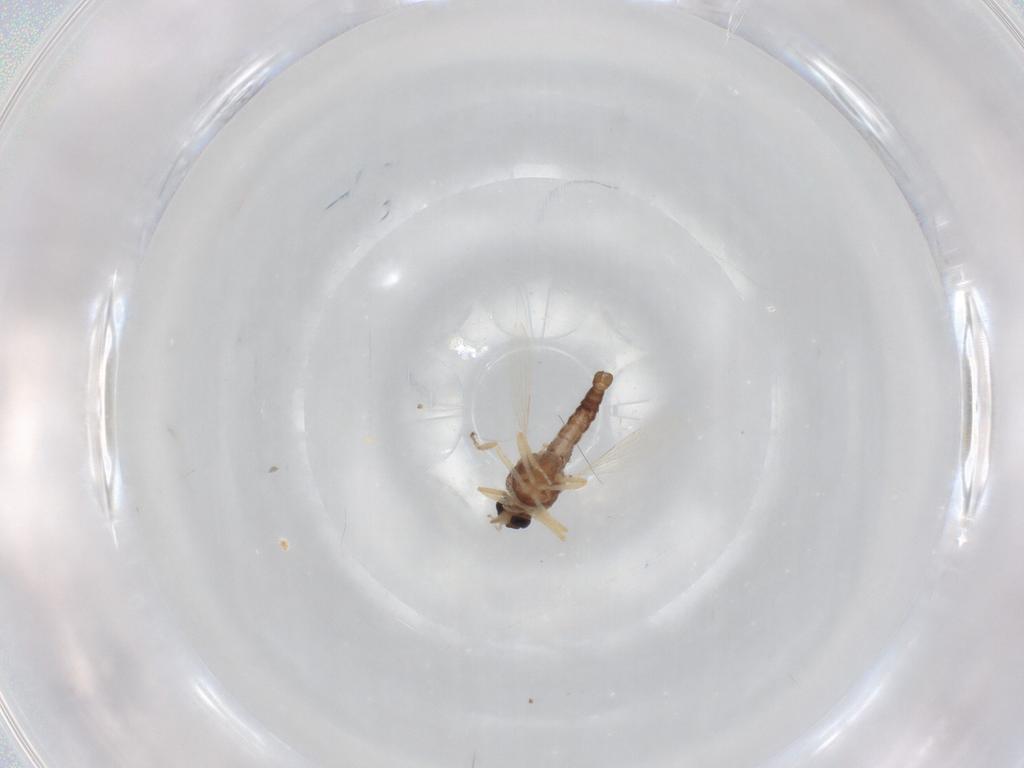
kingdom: Animalia
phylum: Arthropoda
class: Insecta
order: Diptera
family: Ceratopogonidae
